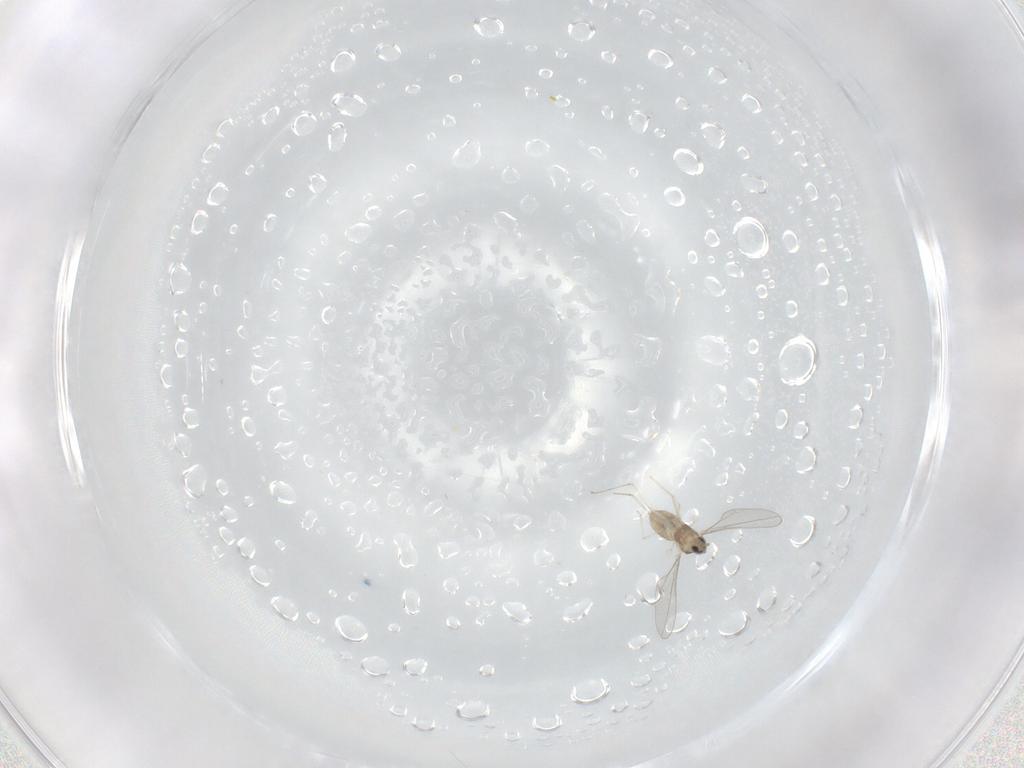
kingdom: Animalia
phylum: Arthropoda
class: Insecta
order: Diptera
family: Cecidomyiidae
